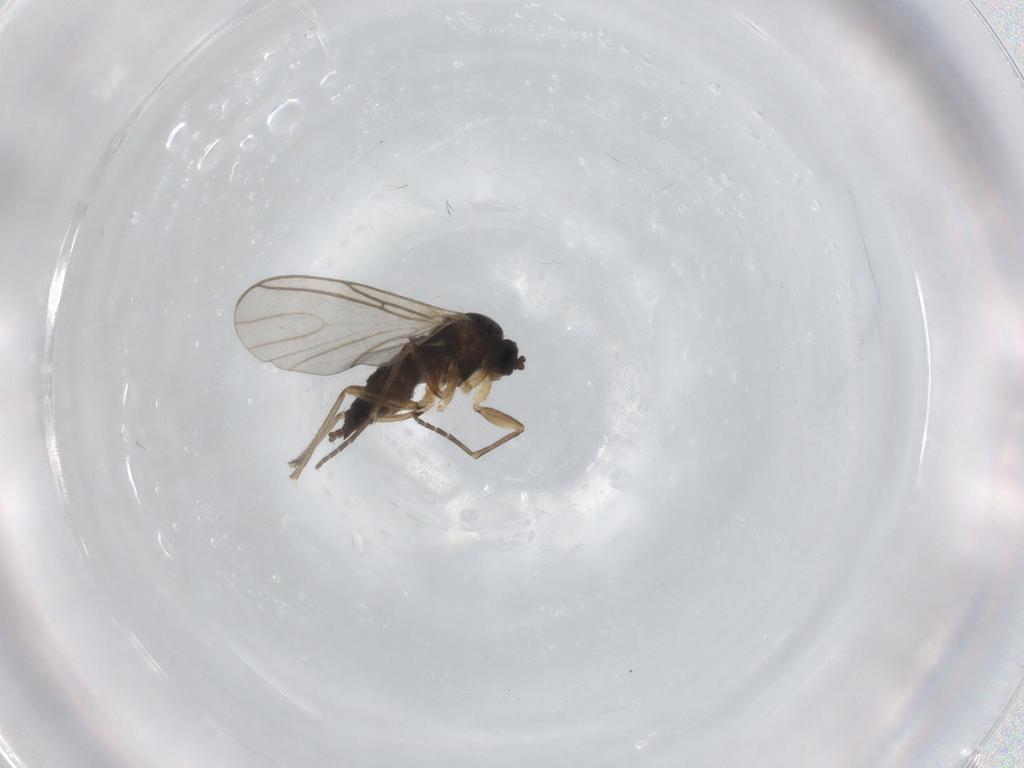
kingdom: Animalia
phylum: Arthropoda
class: Insecta
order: Diptera
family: Sciaridae
